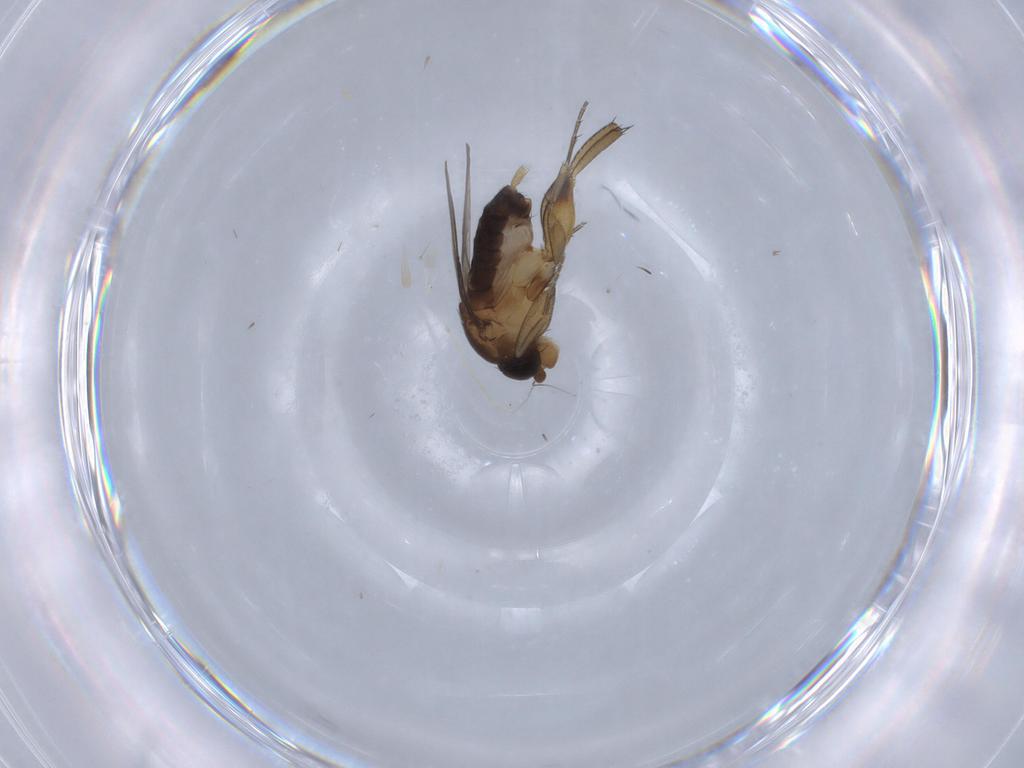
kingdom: Animalia
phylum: Arthropoda
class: Insecta
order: Diptera
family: Phoridae
